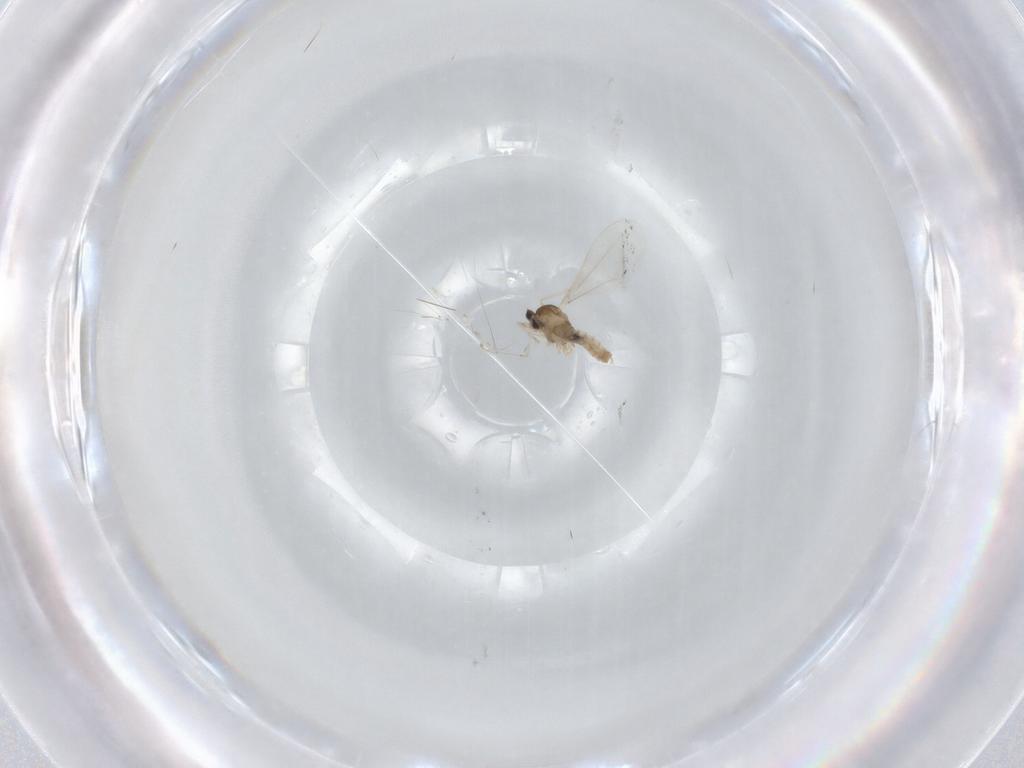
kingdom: Animalia
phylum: Arthropoda
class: Insecta
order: Diptera
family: Cecidomyiidae
